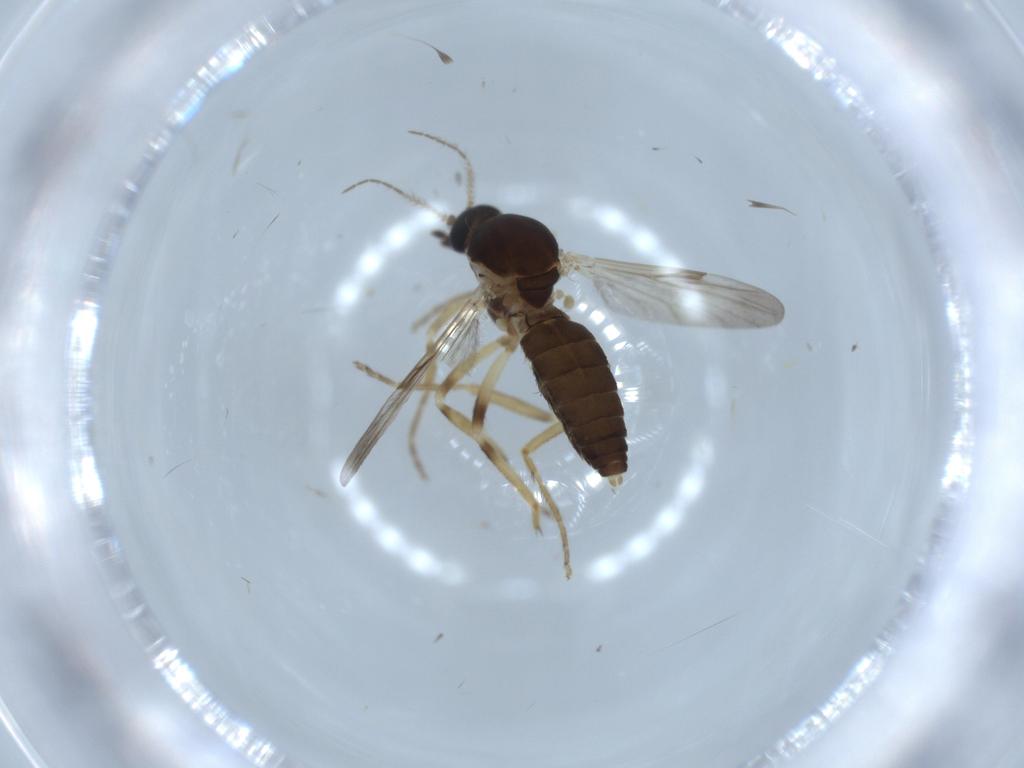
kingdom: Animalia
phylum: Arthropoda
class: Insecta
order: Diptera
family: Ceratopogonidae
